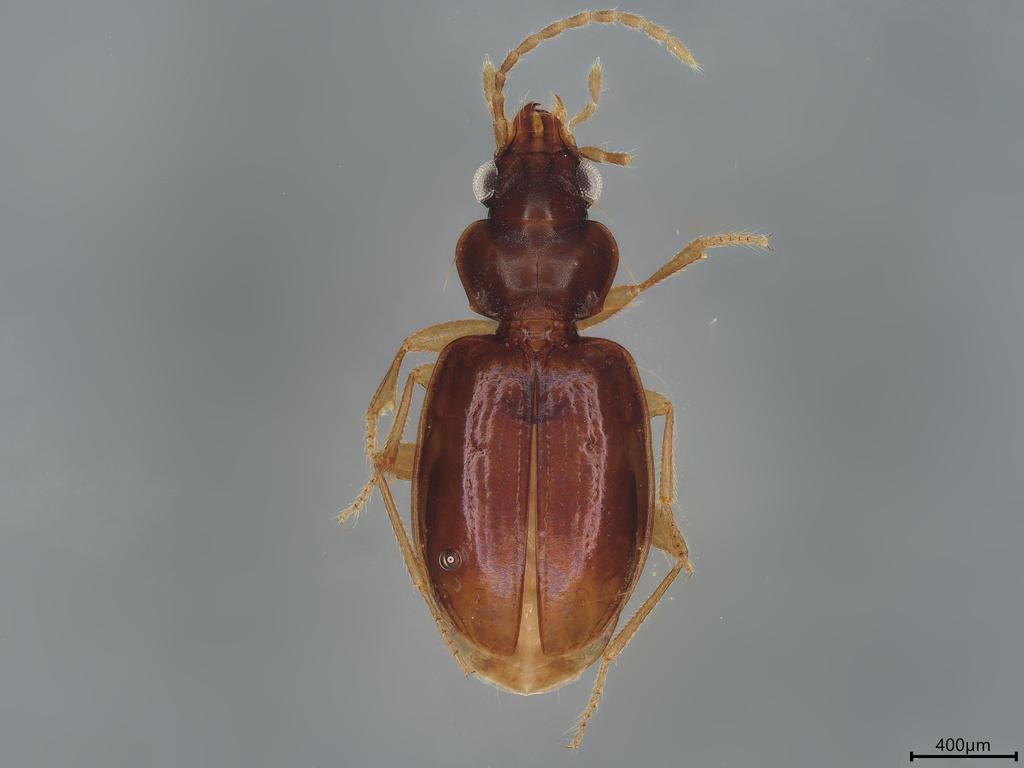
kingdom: Animalia
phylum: Arthropoda
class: Insecta
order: Coleoptera
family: Carabidae
